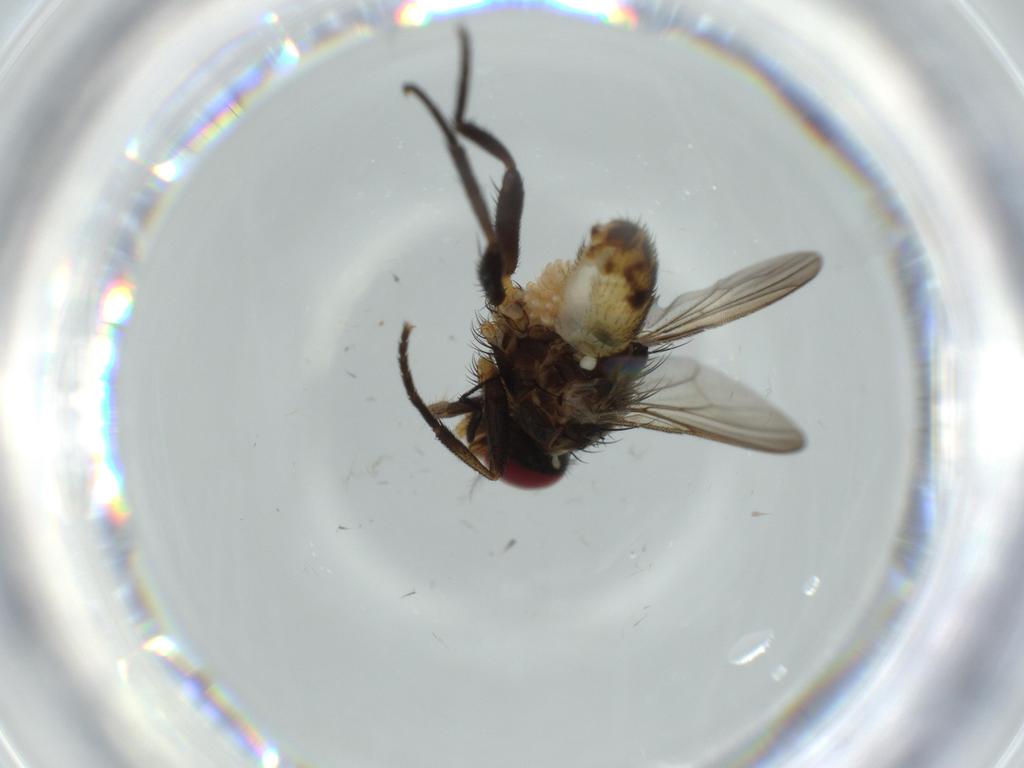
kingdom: Animalia
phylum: Arthropoda
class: Insecta
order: Diptera
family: Anthomyiidae
